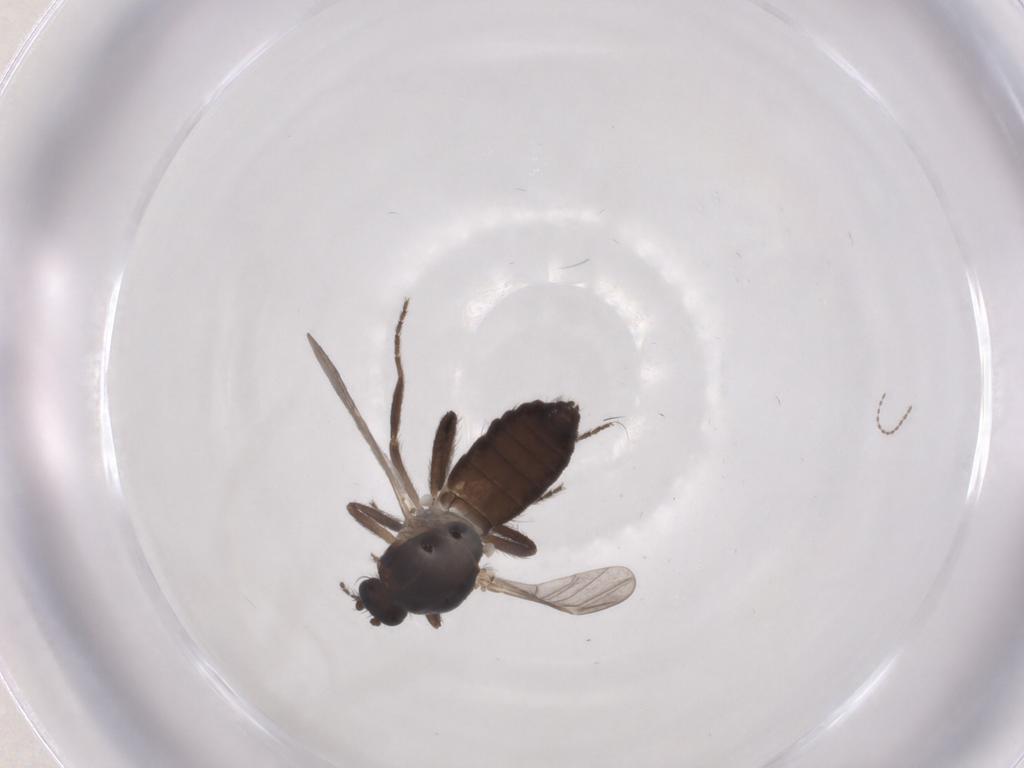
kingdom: Animalia
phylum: Arthropoda
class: Insecta
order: Diptera
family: Ceratopogonidae
